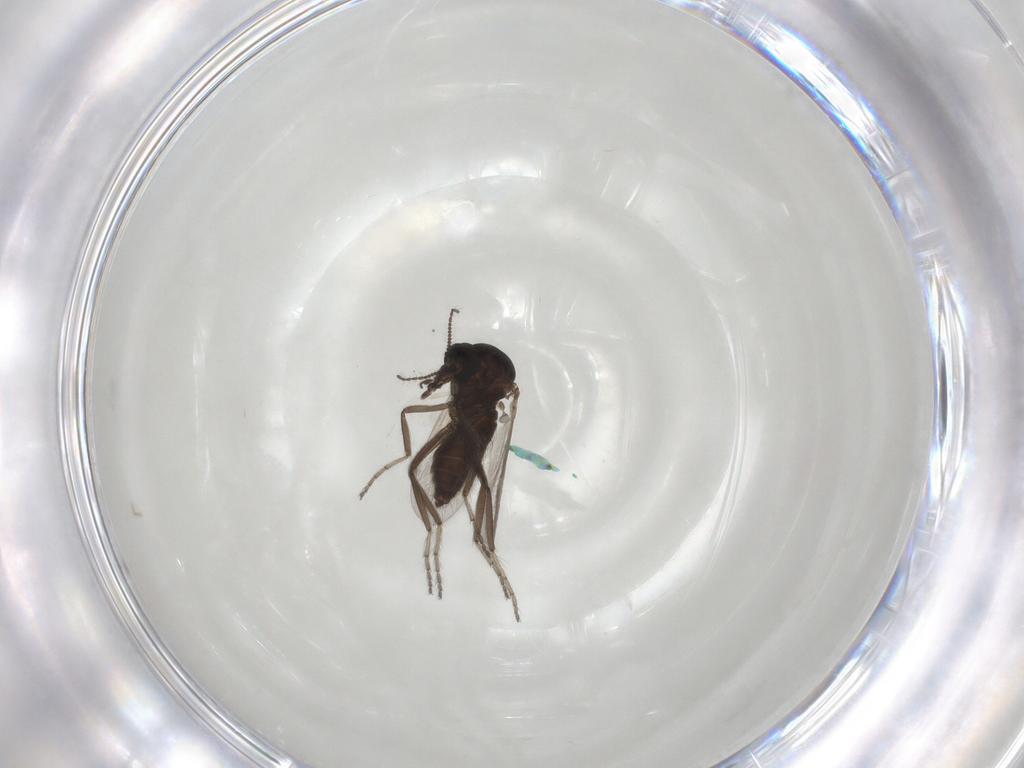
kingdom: Animalia
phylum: Arthropoda
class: Insecta
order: Diptera
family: Ceratopogonidae
